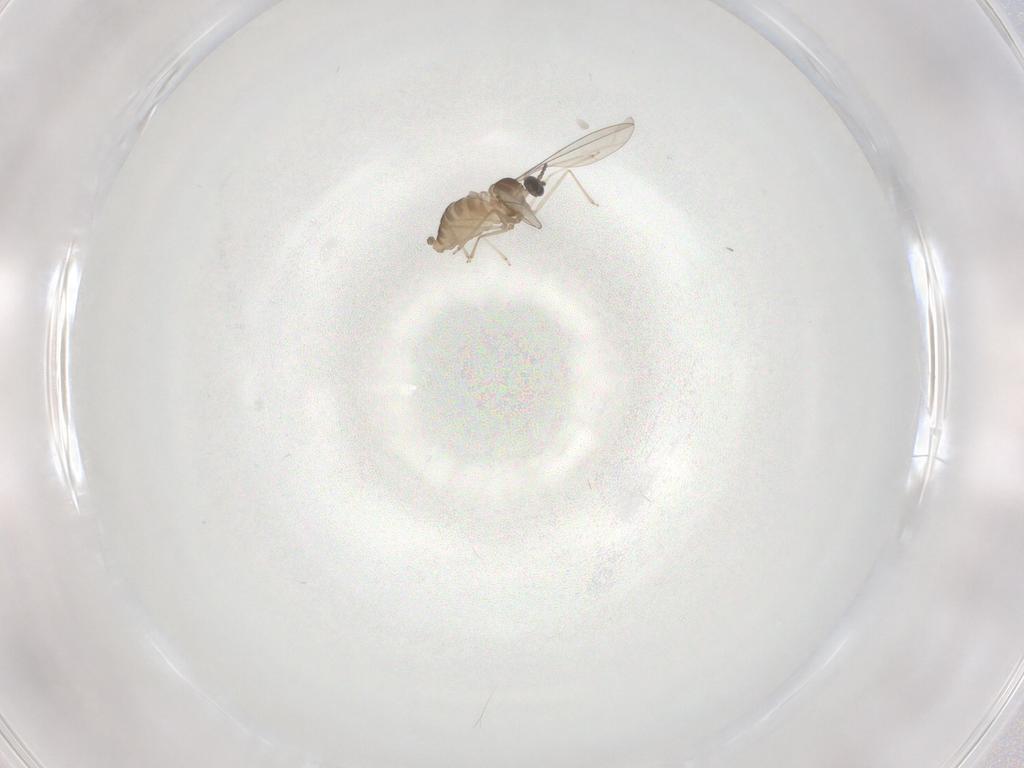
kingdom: Animalia
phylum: Arthropoda
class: Insecta
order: Diptera
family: Cecidomyiidae
